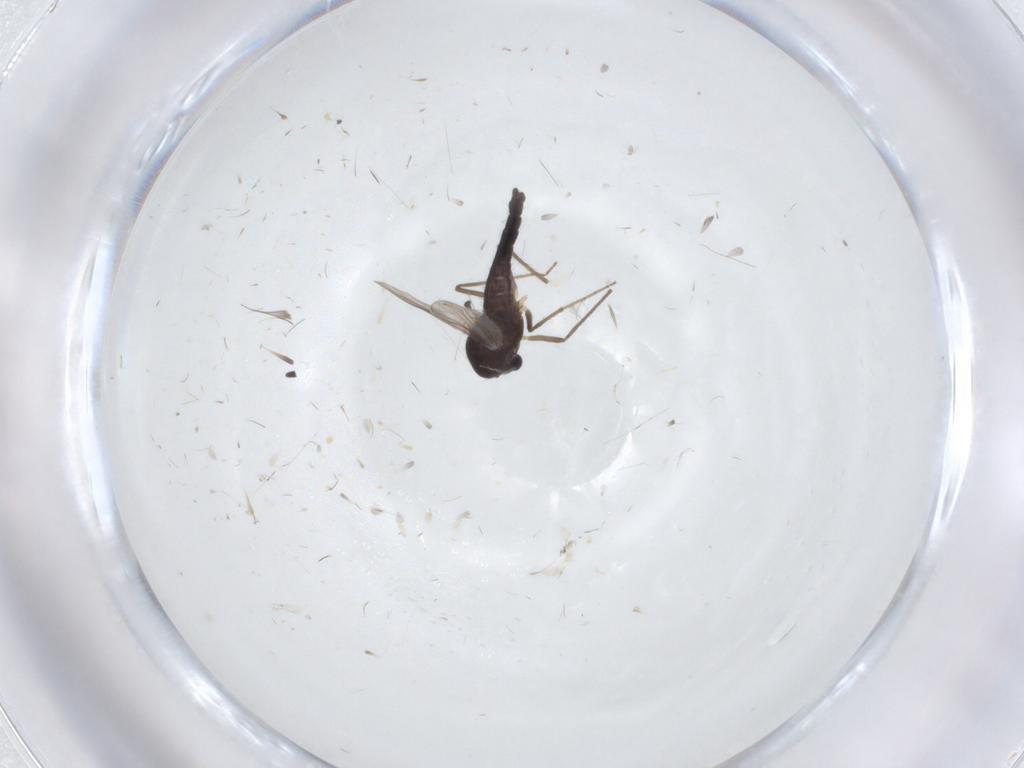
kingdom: Animalia
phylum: Arthropoda
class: Insecta
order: Diptera
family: Chironomidae
